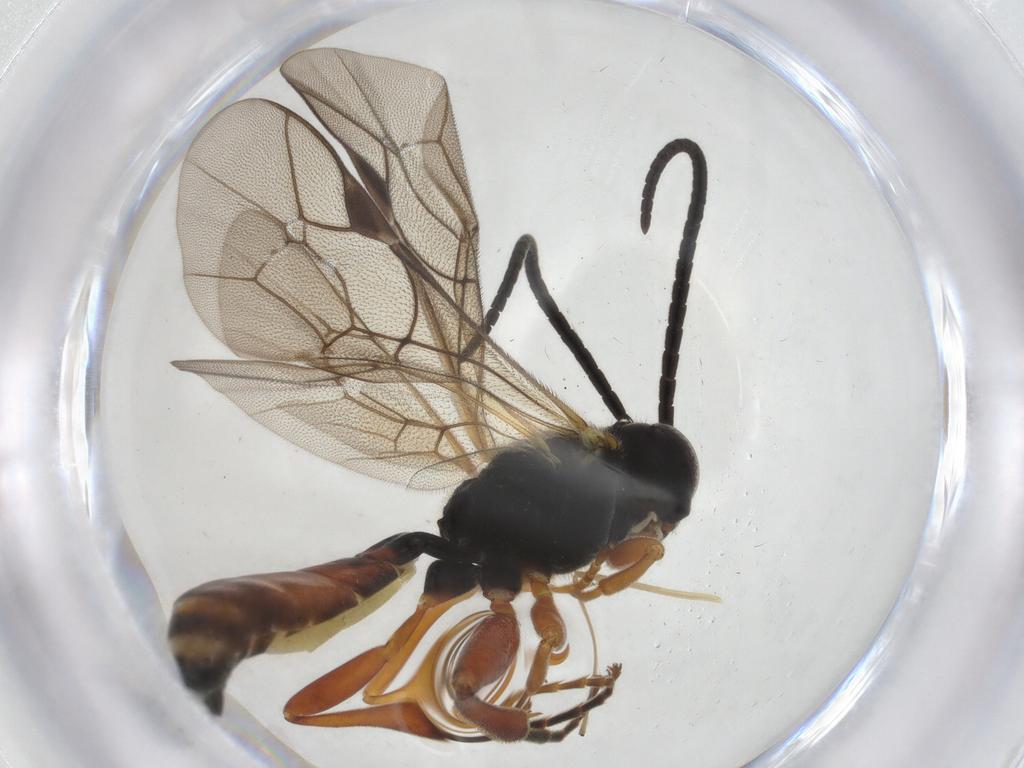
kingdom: Animalia
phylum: Arthropoda
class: Insecta
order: Hymenoptera
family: Ichneumonidae
